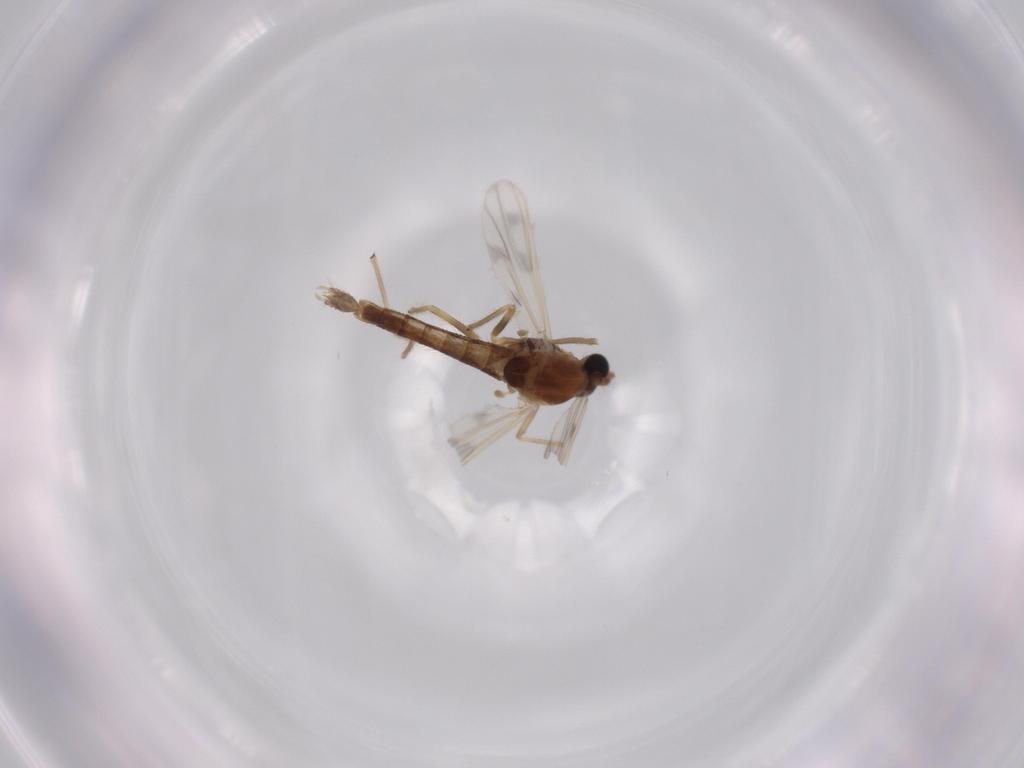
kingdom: Animalia
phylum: Arthropoda
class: Insecta
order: Diptera
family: Chironomidae
